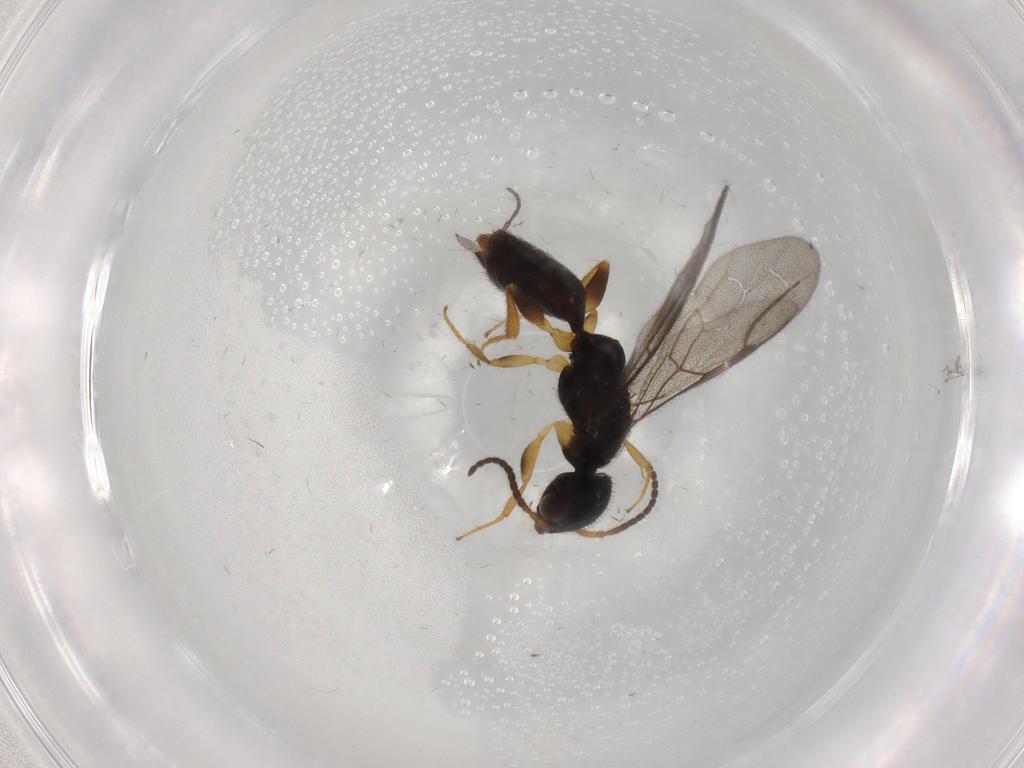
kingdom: Animalia
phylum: Arthropoda
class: Insecta
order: Hymenoptera
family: Bethylidae
